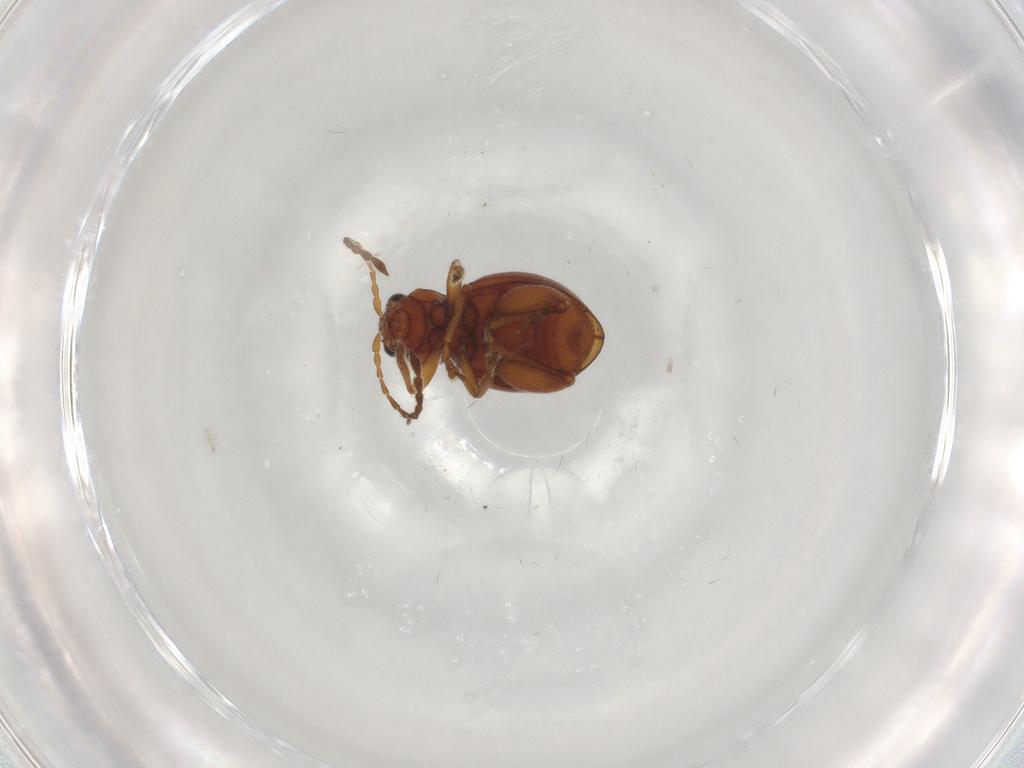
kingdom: Animalia
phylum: Arthropoda
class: Insecta
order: Coleoptera
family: Chrysomelidae
